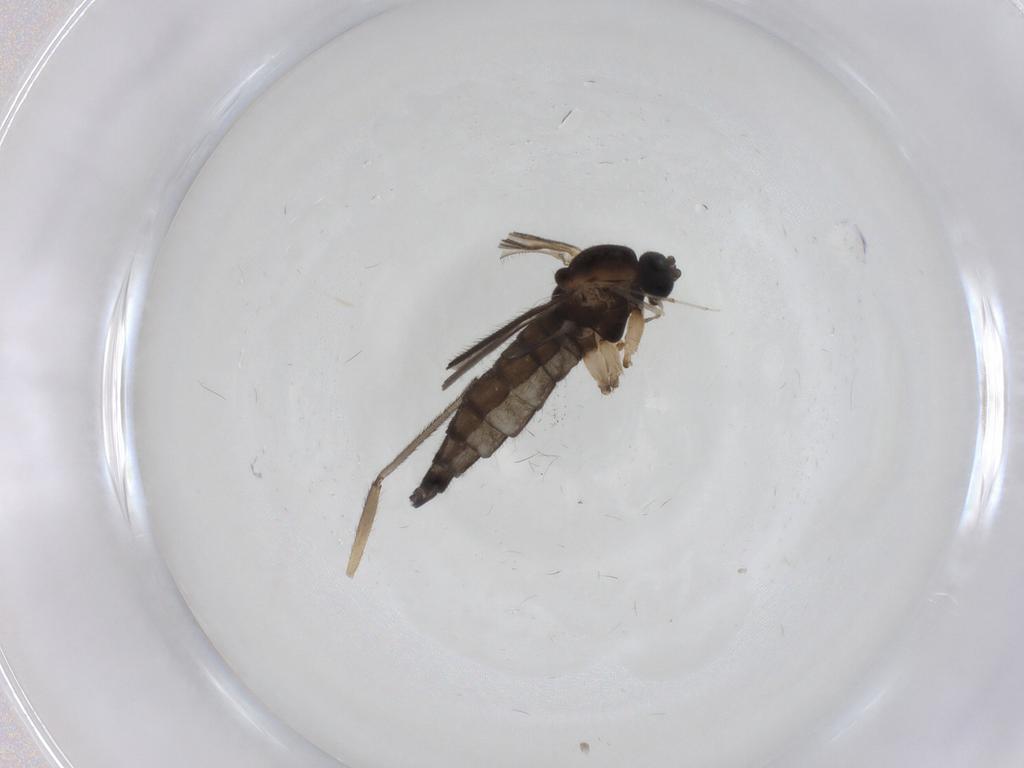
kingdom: Animalia
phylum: Arthropoda
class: Insecta
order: Diptera
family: Sciaridae
